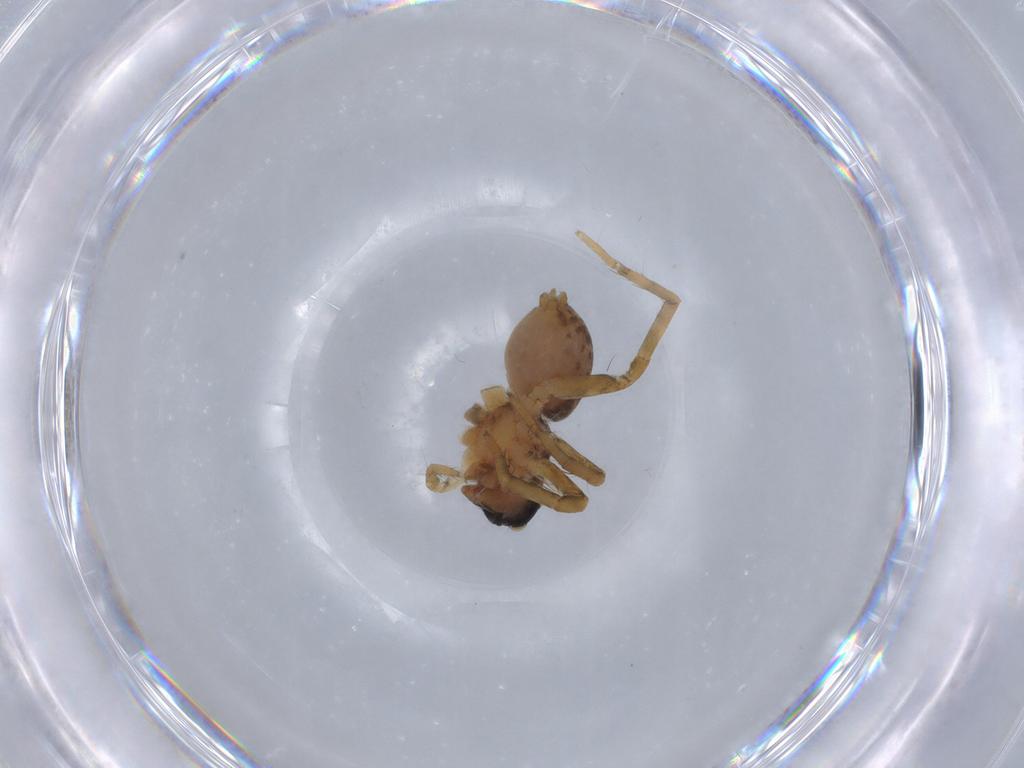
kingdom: Animalia
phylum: Arthropoda
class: Arachnida
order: Araneae
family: Lycosidae
